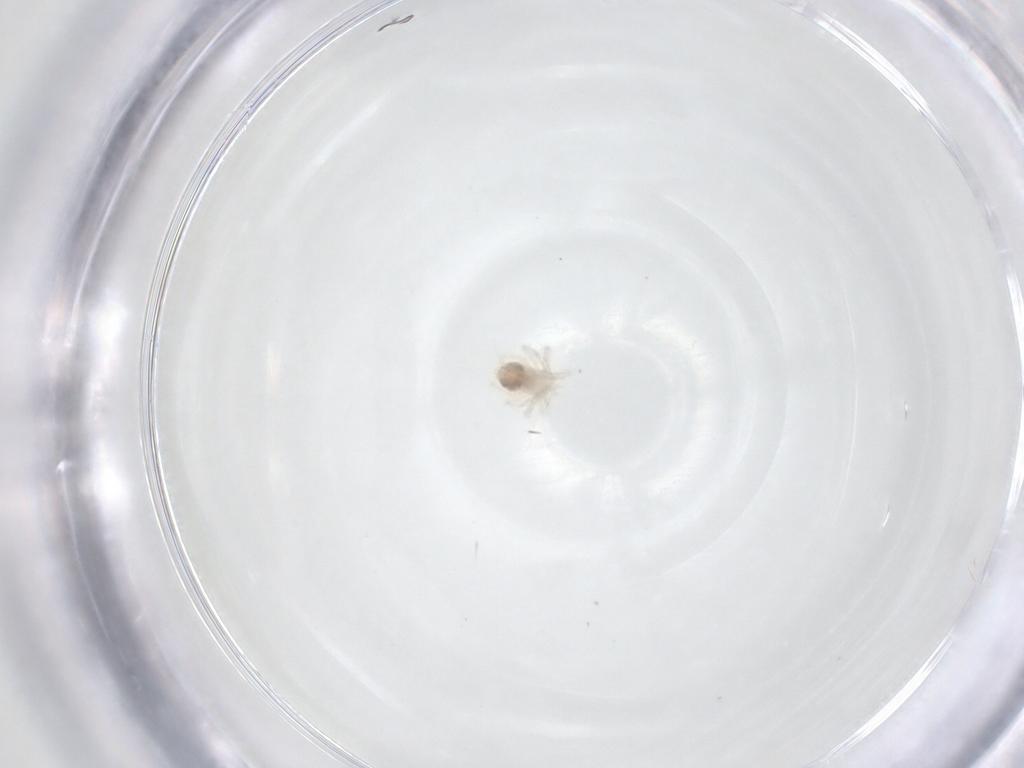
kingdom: Animalia
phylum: Arthropoda
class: Arachnida
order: Trombidiformes
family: Anystidae
